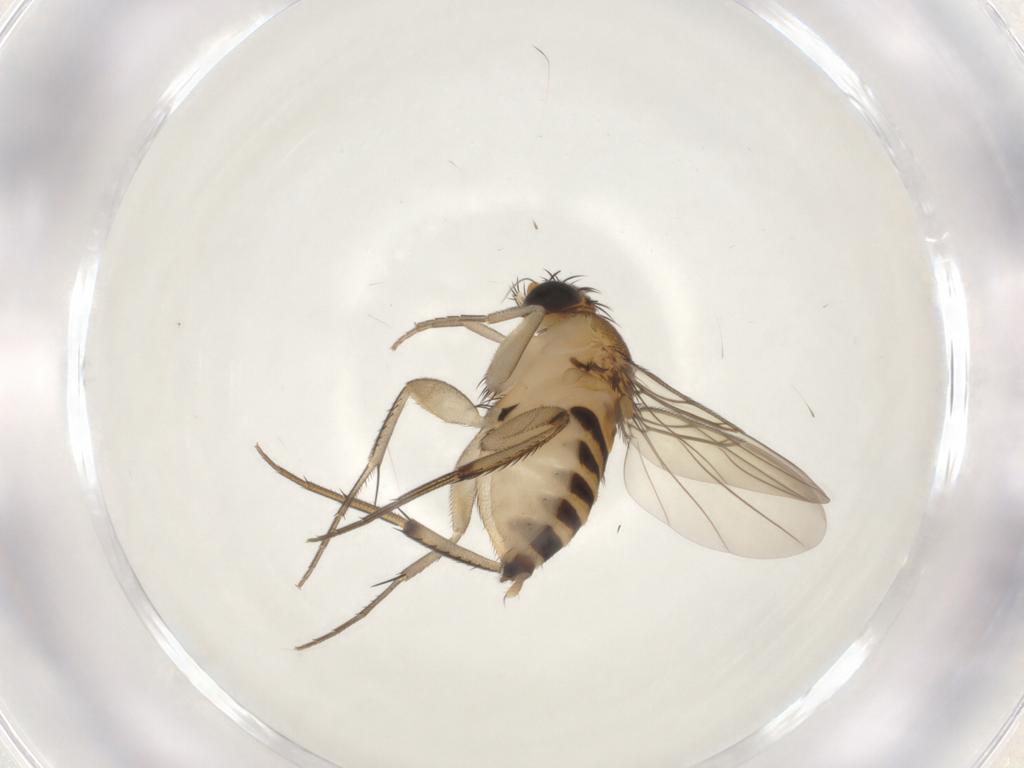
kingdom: Animalia
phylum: Arthropoda
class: Insecta
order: Diptera
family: Phoridae
